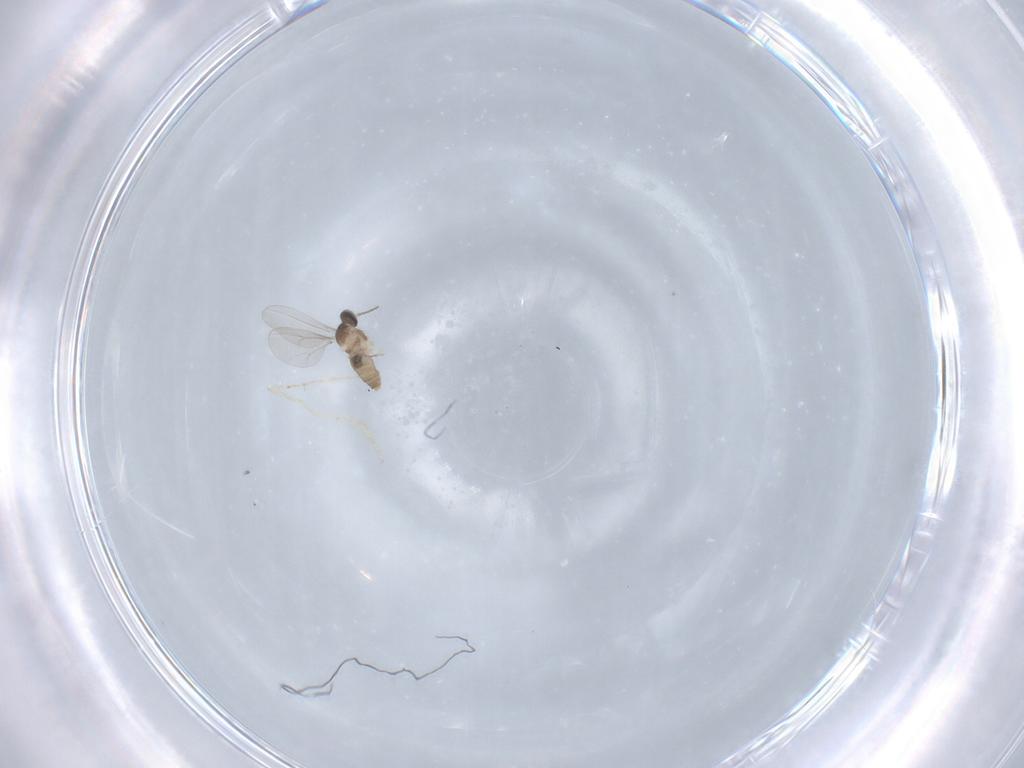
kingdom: Animalia
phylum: Arthropoda
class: Insecta
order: Diptera
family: Cecidomyiidae
